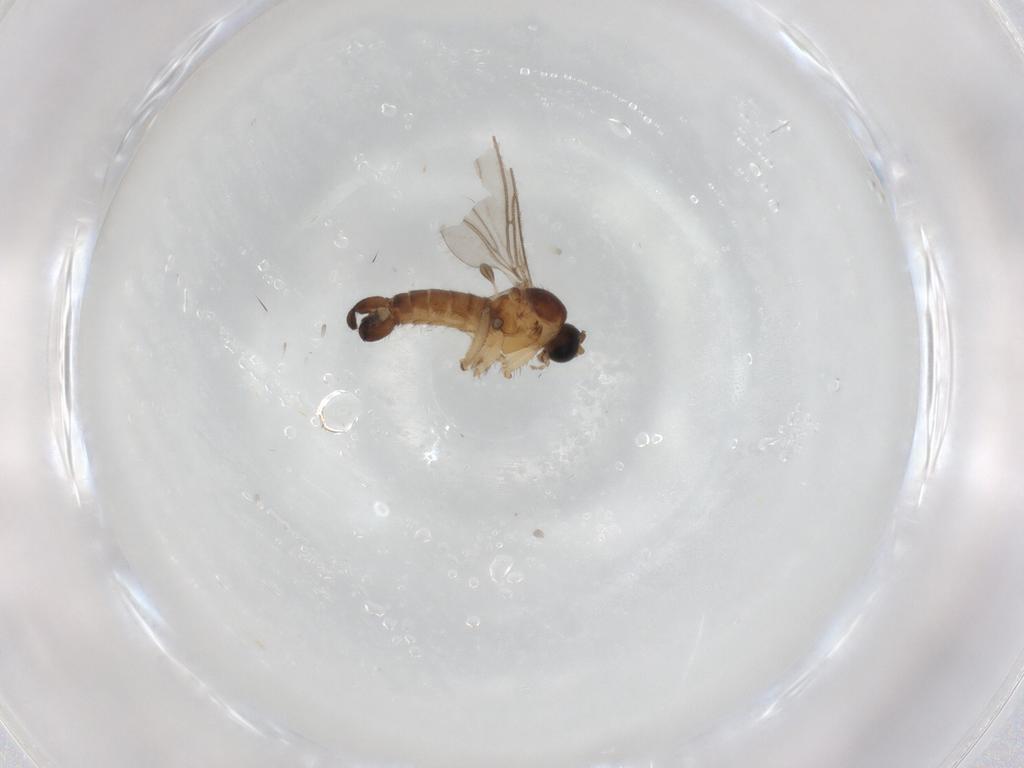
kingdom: Animalia
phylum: Arthropoda
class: Insecta
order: Diptera
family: Sciaridae
